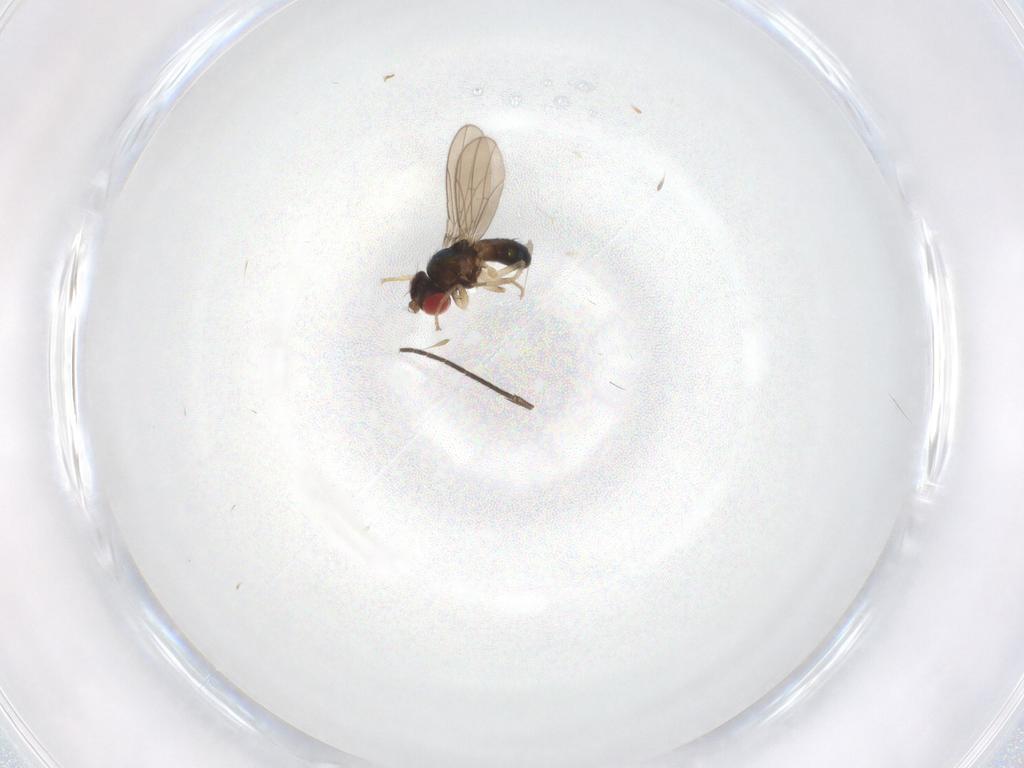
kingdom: Animalia
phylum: Arthropoda
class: Insecta
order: Diptera
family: Drosophilidae
